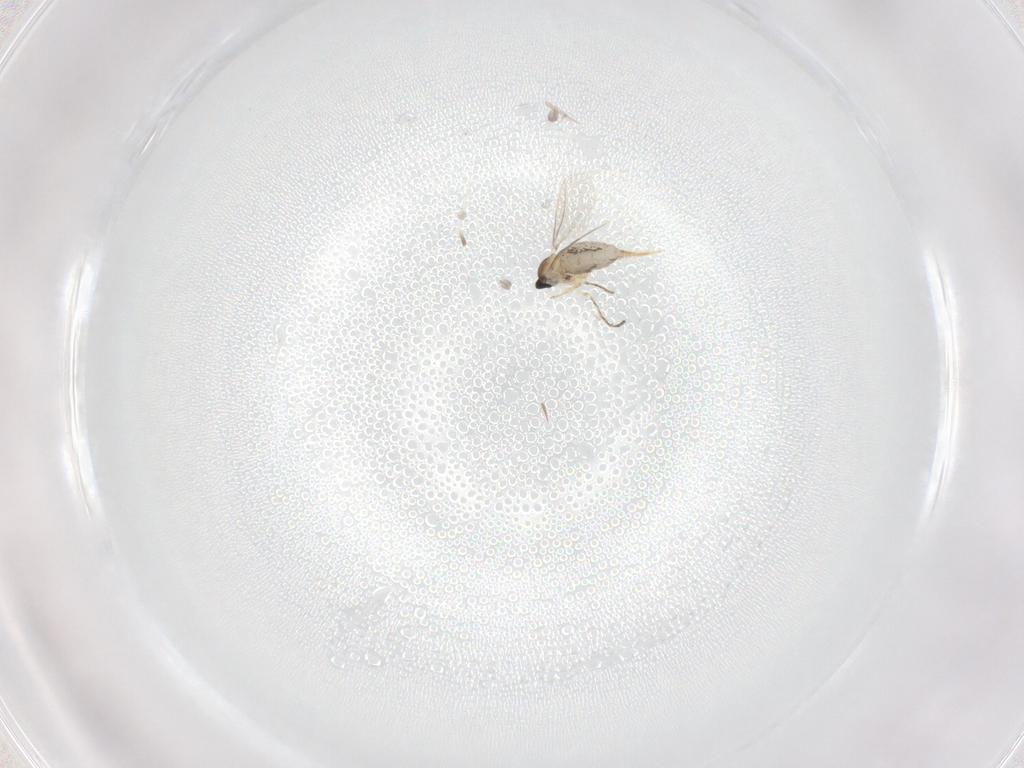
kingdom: Animalia
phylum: Arthropoda
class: Insecta
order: Diptera
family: Cecidomyiidae
